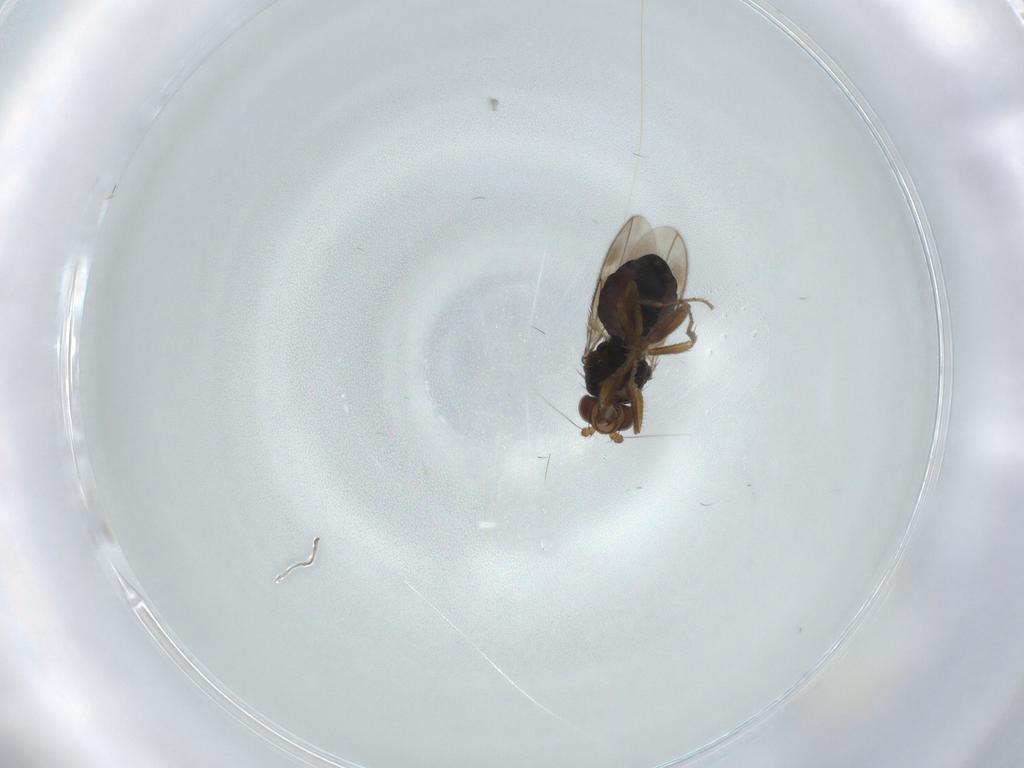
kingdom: Animalia
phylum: Arthropoda
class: Insecta
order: Diptera
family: Sphaeroceridae
